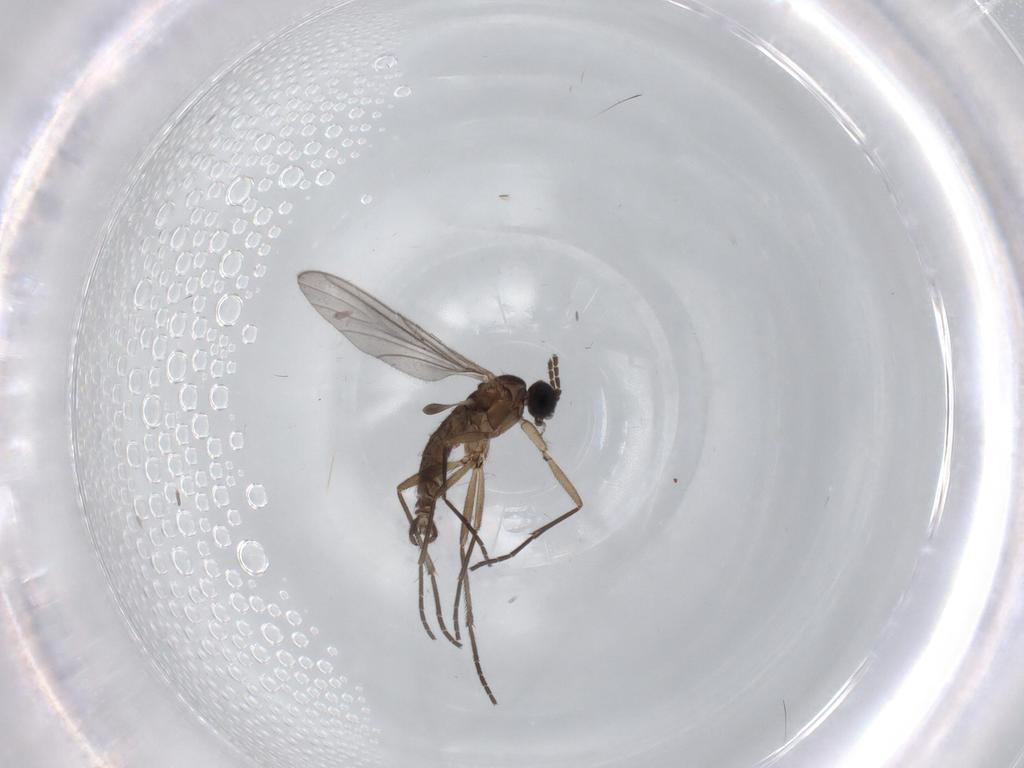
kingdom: Animalia
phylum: Arthropoda
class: Insecta
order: Diptera
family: Sciaridae
